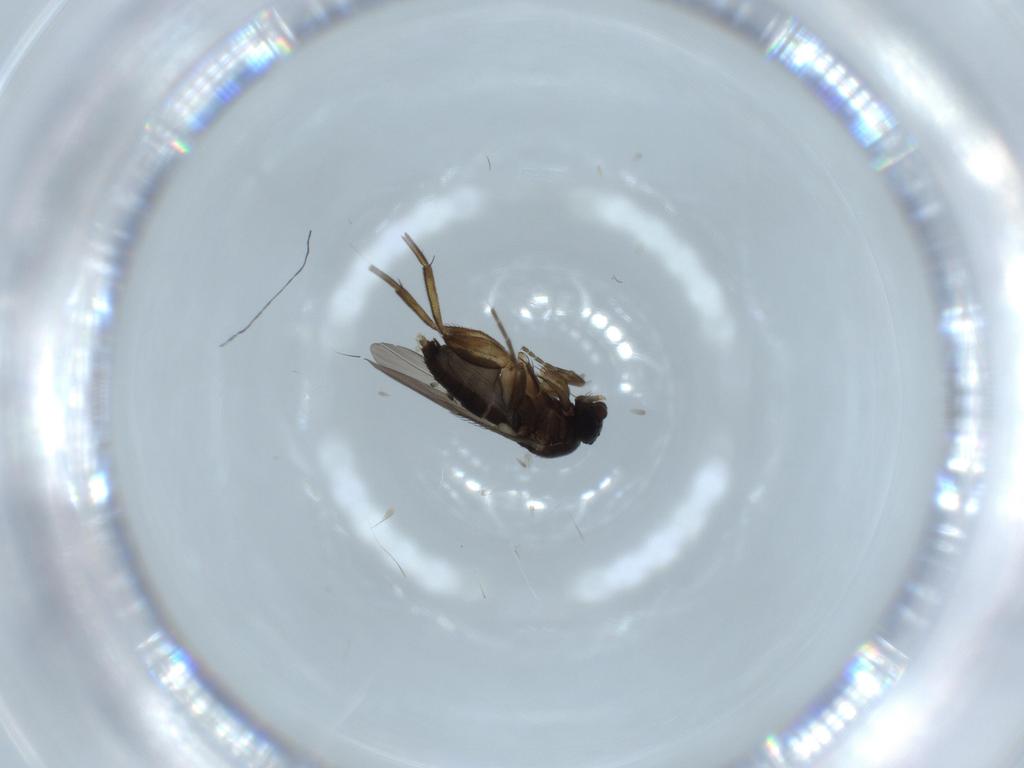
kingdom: Animalia
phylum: Arthropoda
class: Insecta
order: Diptera
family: Phoridae
